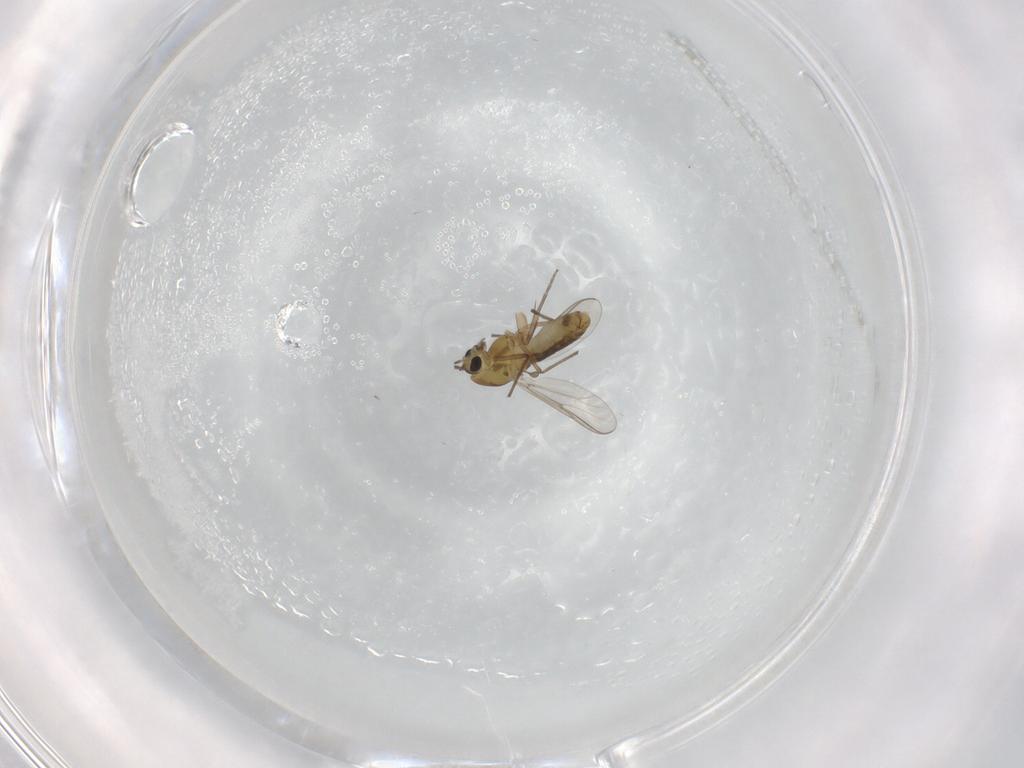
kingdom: Animalia
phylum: Arthropoda
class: Insecta
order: Diptera
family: Chironomidae
